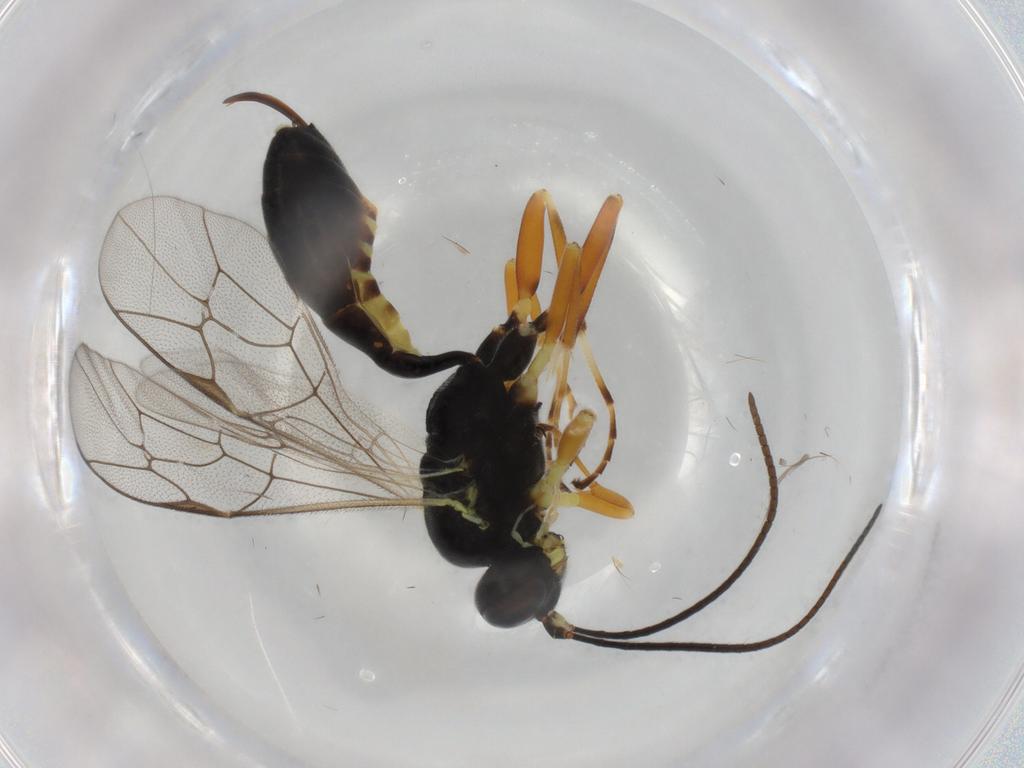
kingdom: Animalia
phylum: Arthropoda
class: Insecta
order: Hymenoptera
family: Ichneumonidae
